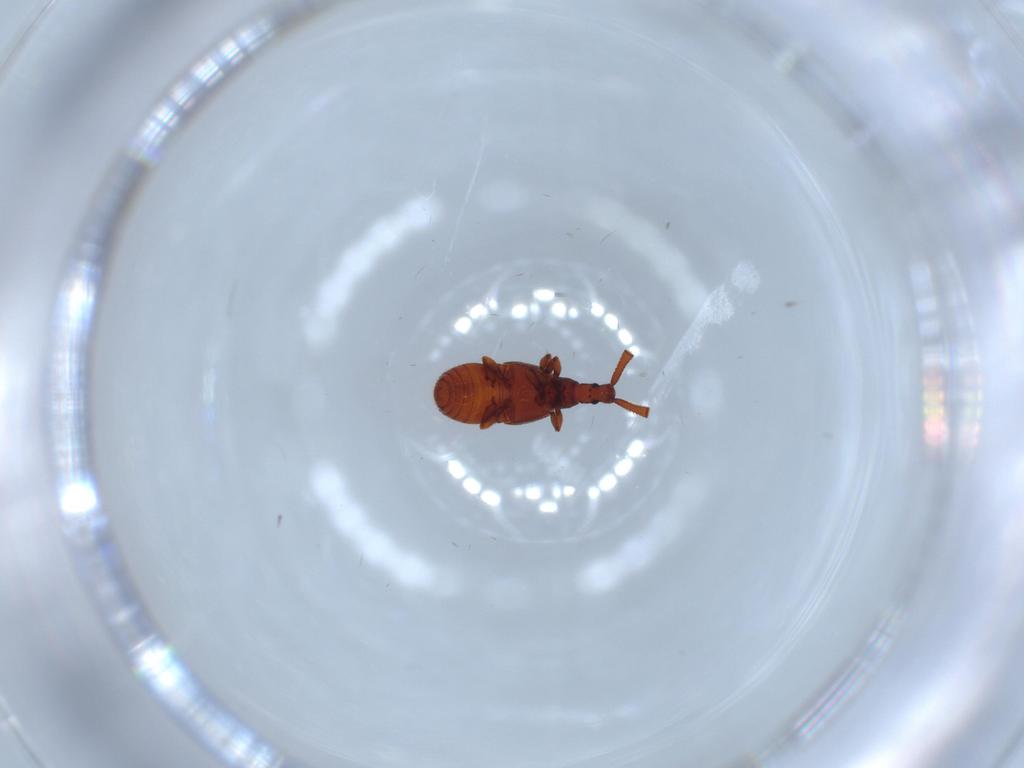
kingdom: Animalia
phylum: Arthropoda
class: Insecta
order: Coleoptera
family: Staphylinidae
